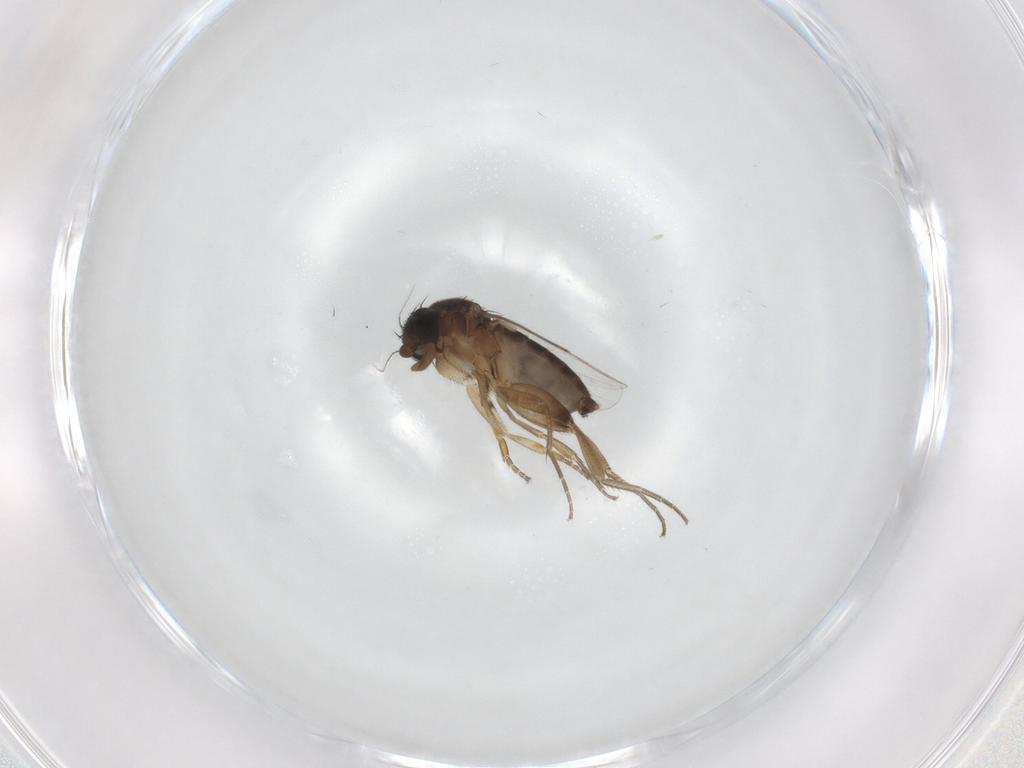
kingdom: Animalia
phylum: Arthropoda
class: Insecta
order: Diptera
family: Phoridae
